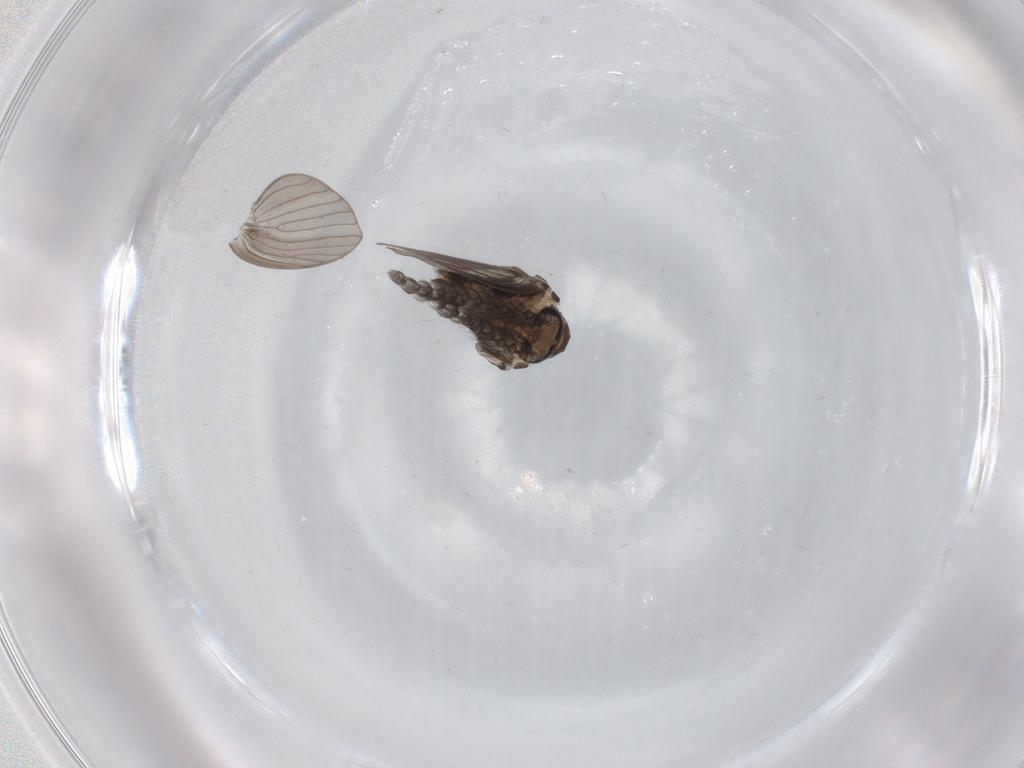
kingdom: Animalia
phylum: Arthropoda
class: Insecta
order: Diptera
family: Psychodidae
